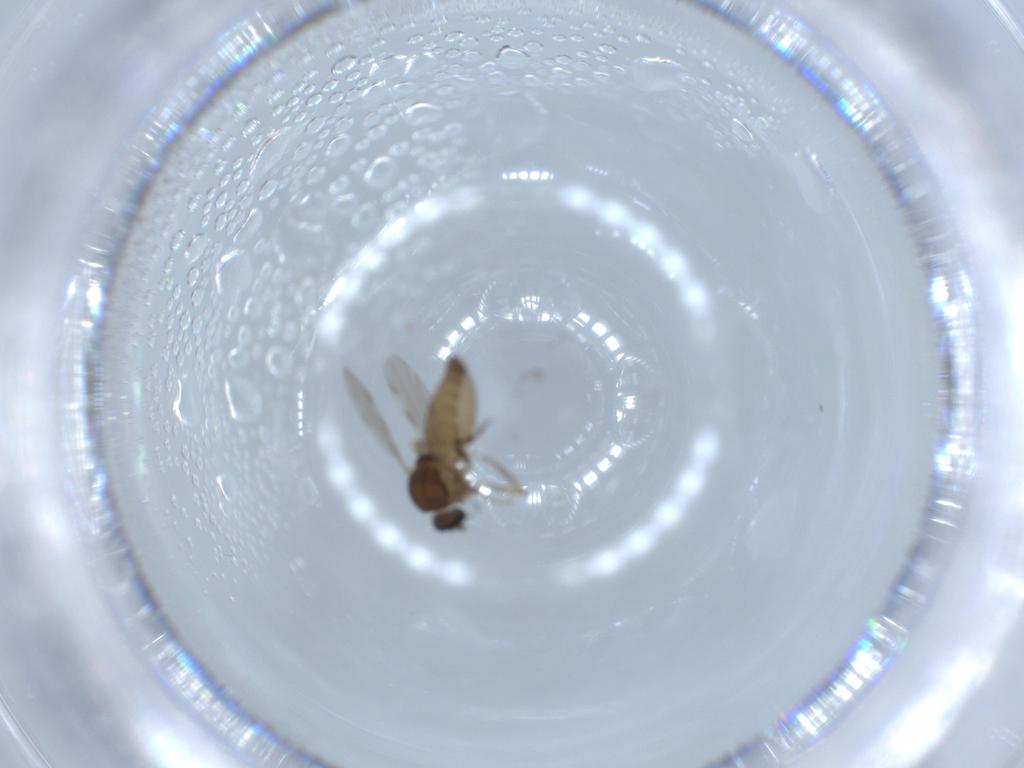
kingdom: Animalia
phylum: Arthropoda
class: Insecta
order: Diptera
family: Ceratopogonidae
